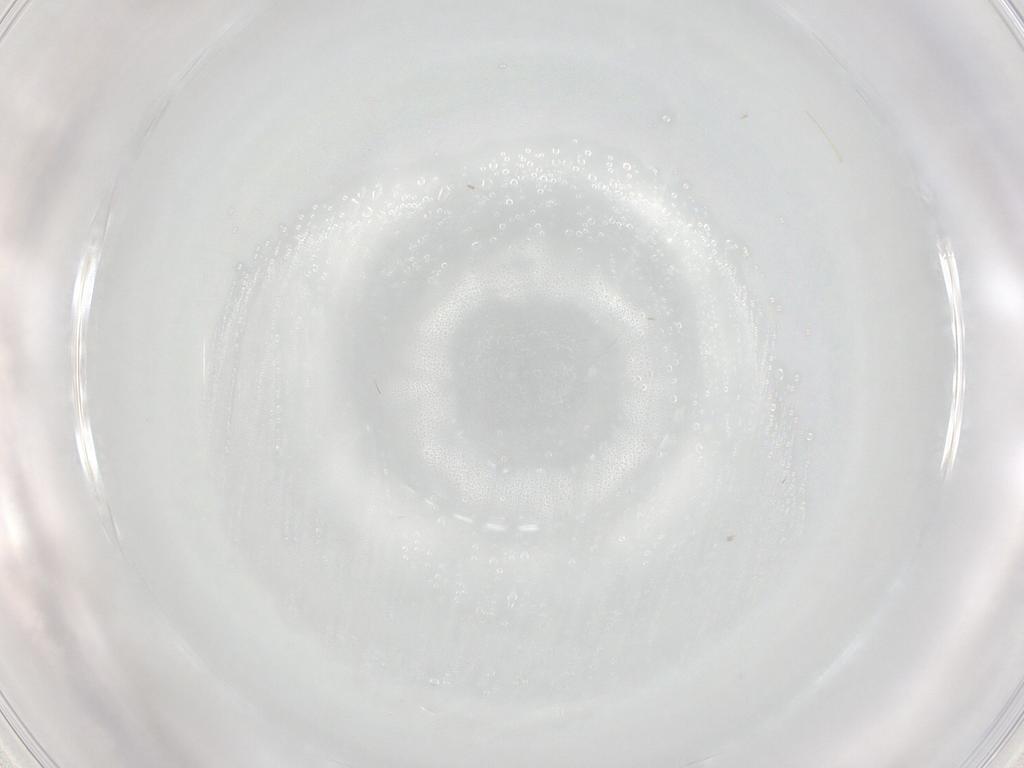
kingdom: Animalia
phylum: Arthropoda
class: Insecta
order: Diptera
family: Cecidomyiidae
